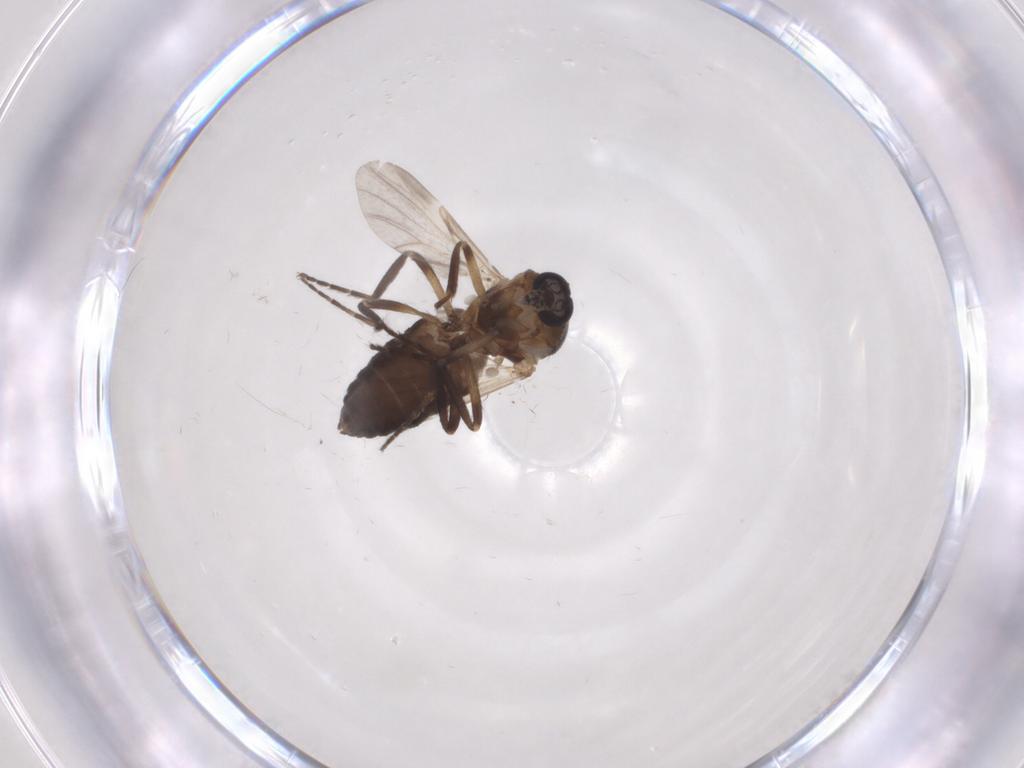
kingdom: Animalia
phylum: Arthropoda
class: Insecta
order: Diptera
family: Ceratopogonidae
